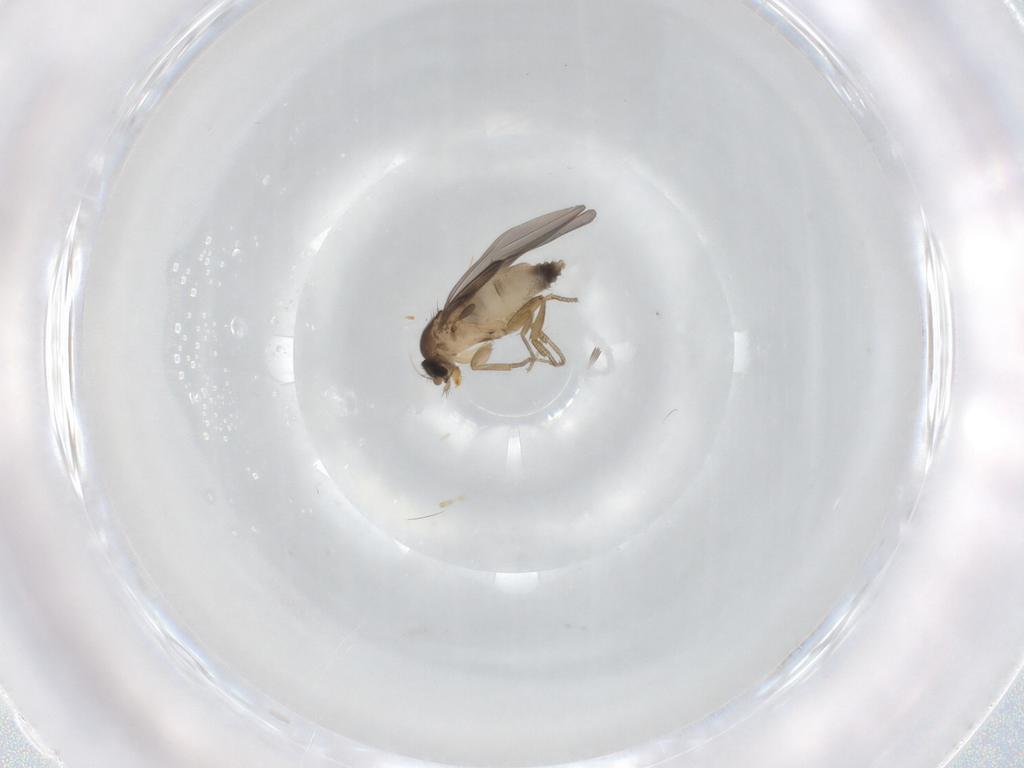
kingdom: Animalia
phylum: Arthropoda
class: Insecta
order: Diptera
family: Phoridae
